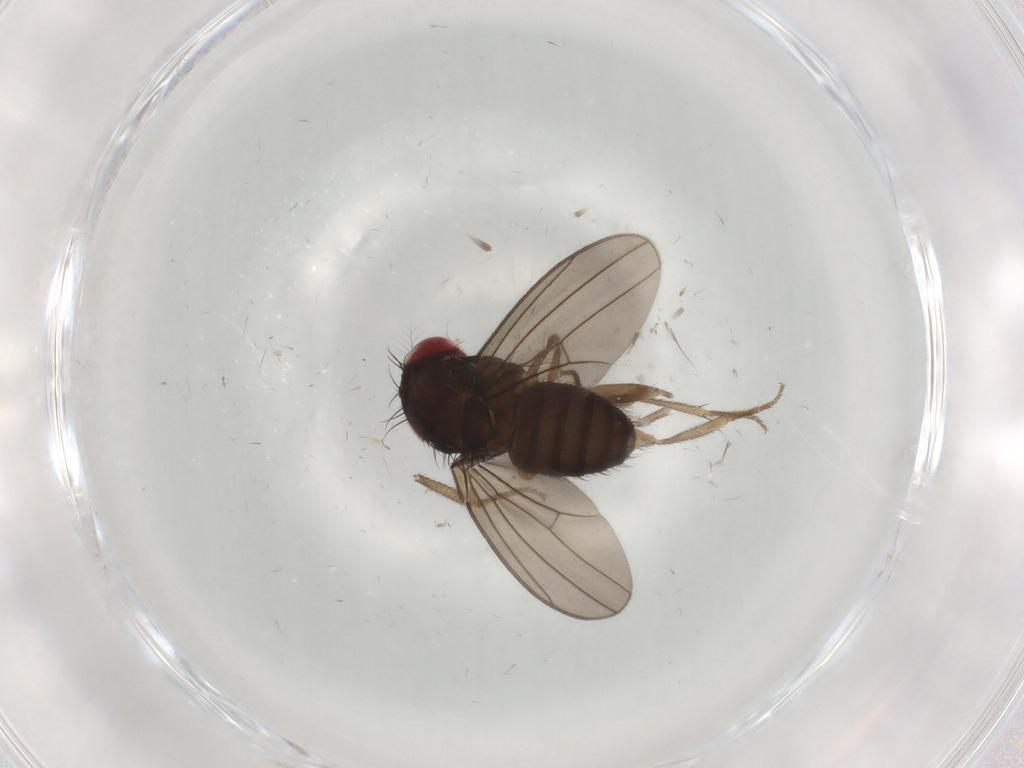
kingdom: Animalia
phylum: Arthropoda
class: Insecta
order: Diptera
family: Drosophilidae
